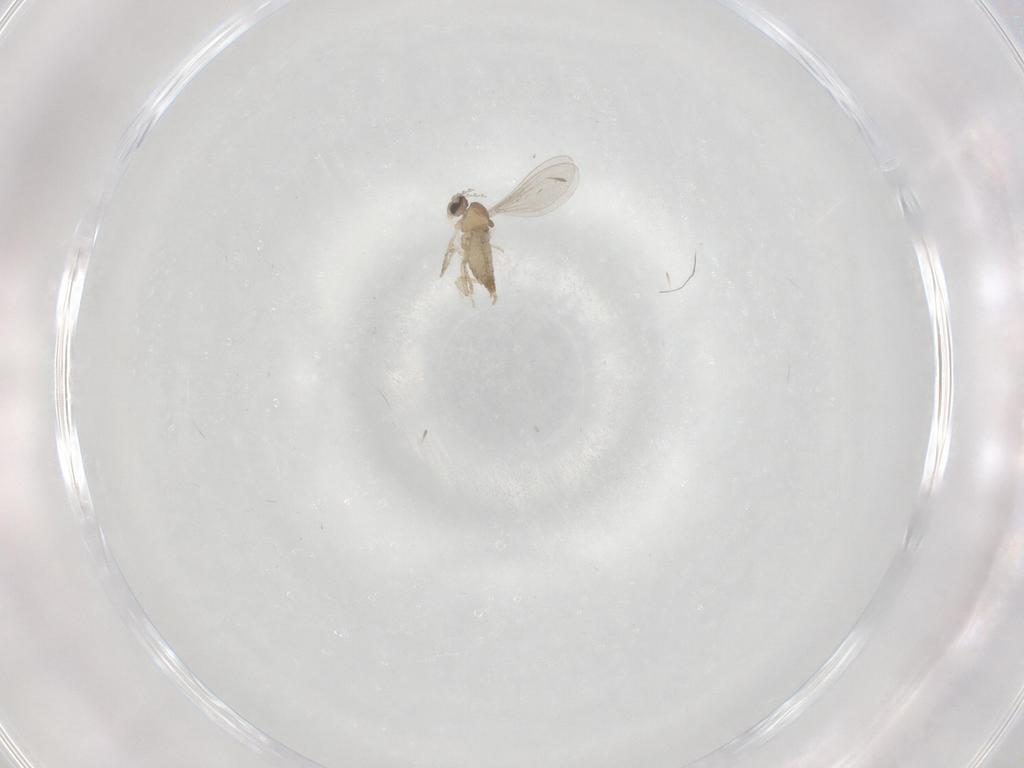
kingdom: Animalia
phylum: Arthropoda
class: Insecta
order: Diptera
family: Cecidomyiidae
